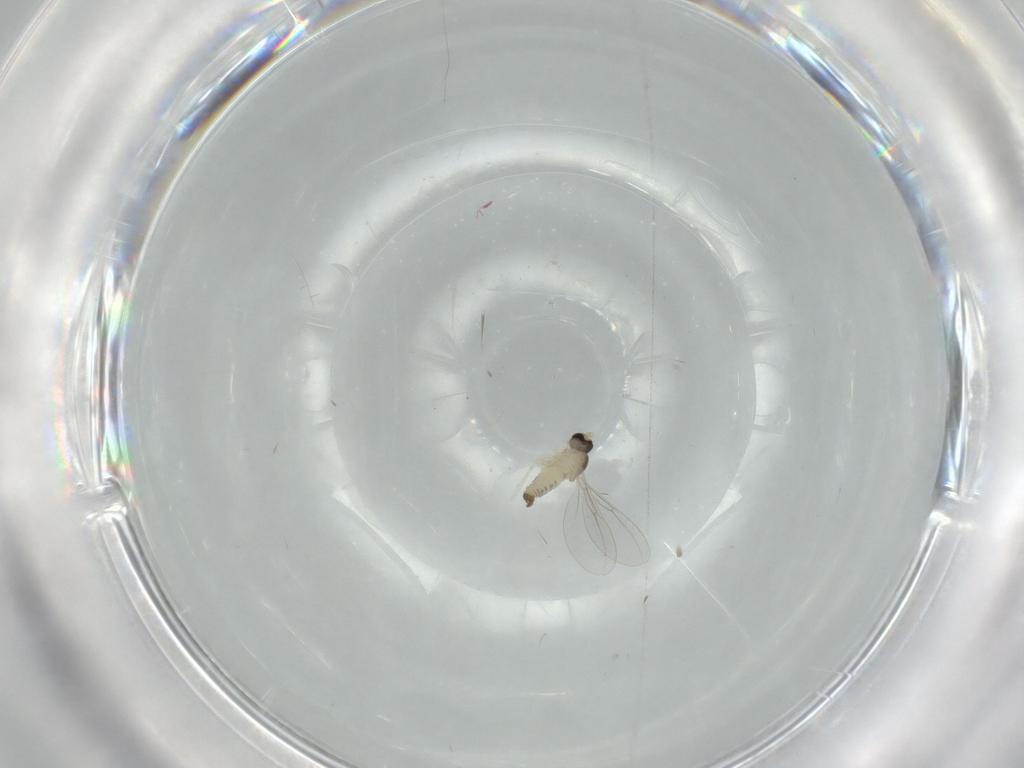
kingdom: Animalia
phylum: Arthropoda
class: Insecta
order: Diptera
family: Cecidomyiidae
